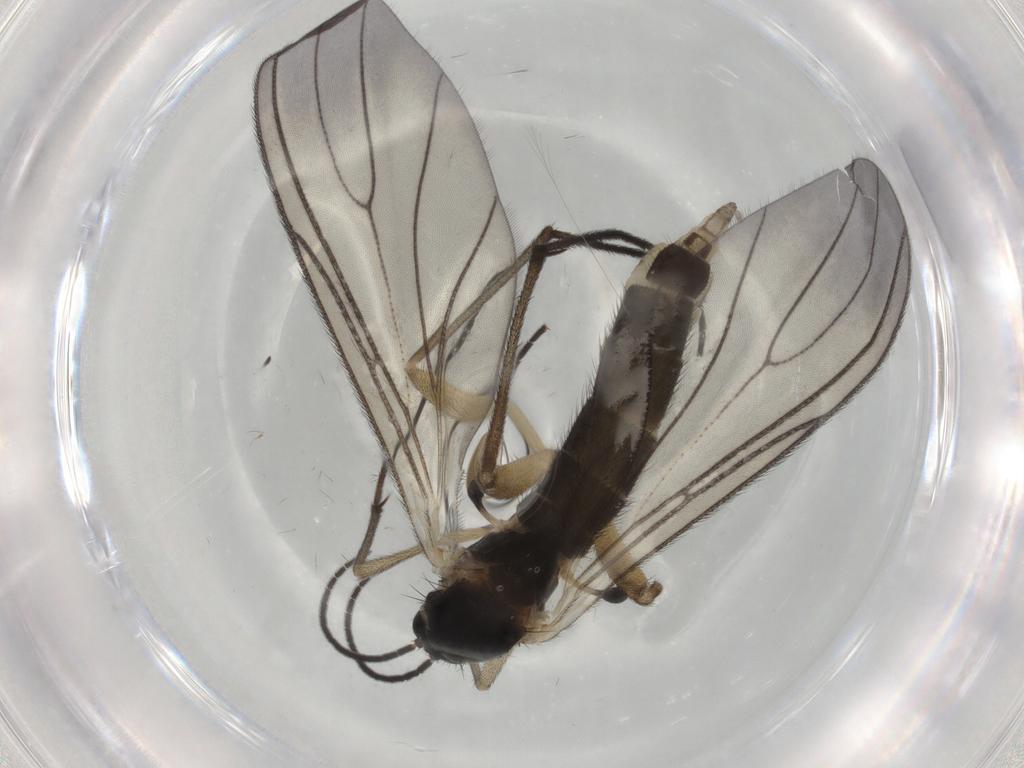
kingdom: Animalia
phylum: Arthropoda
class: Insecta
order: Diptera
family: Sciaridae
